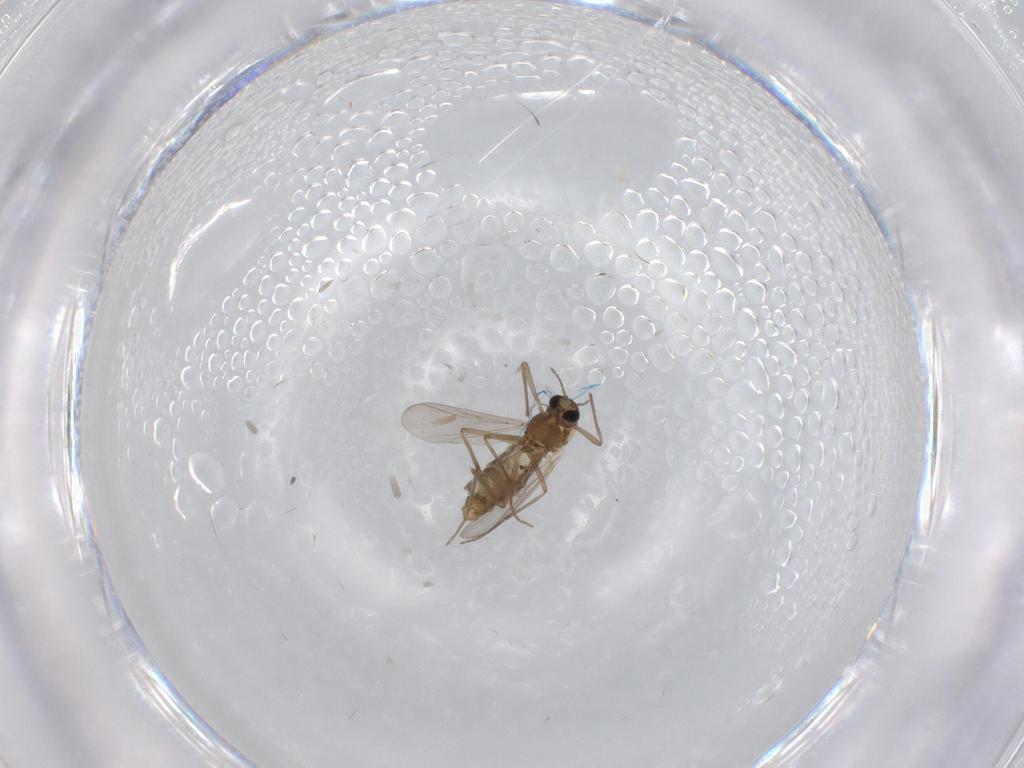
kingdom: Animalia
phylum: Arthropoda
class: Insecta
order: Diptera
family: Chironomidae
